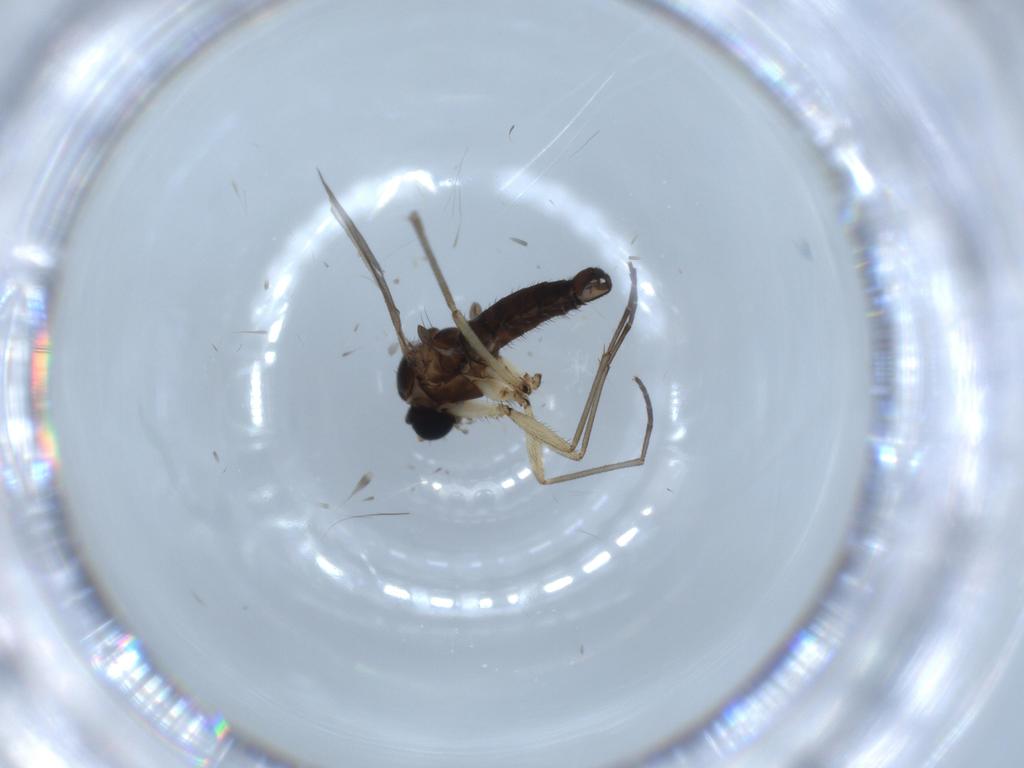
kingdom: Animalia
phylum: Arthropoda
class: Insecta
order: Diptera
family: Sciaridae
